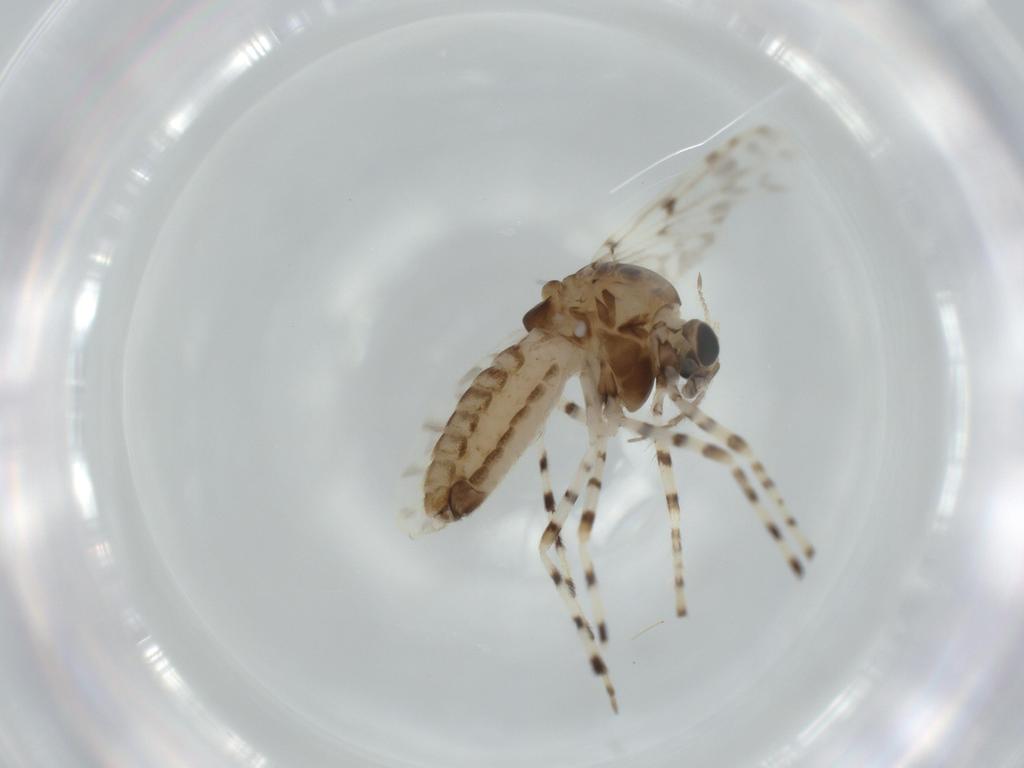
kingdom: Animalia
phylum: Arthropoda
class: Insecta
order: Diptera
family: Chironomidae
